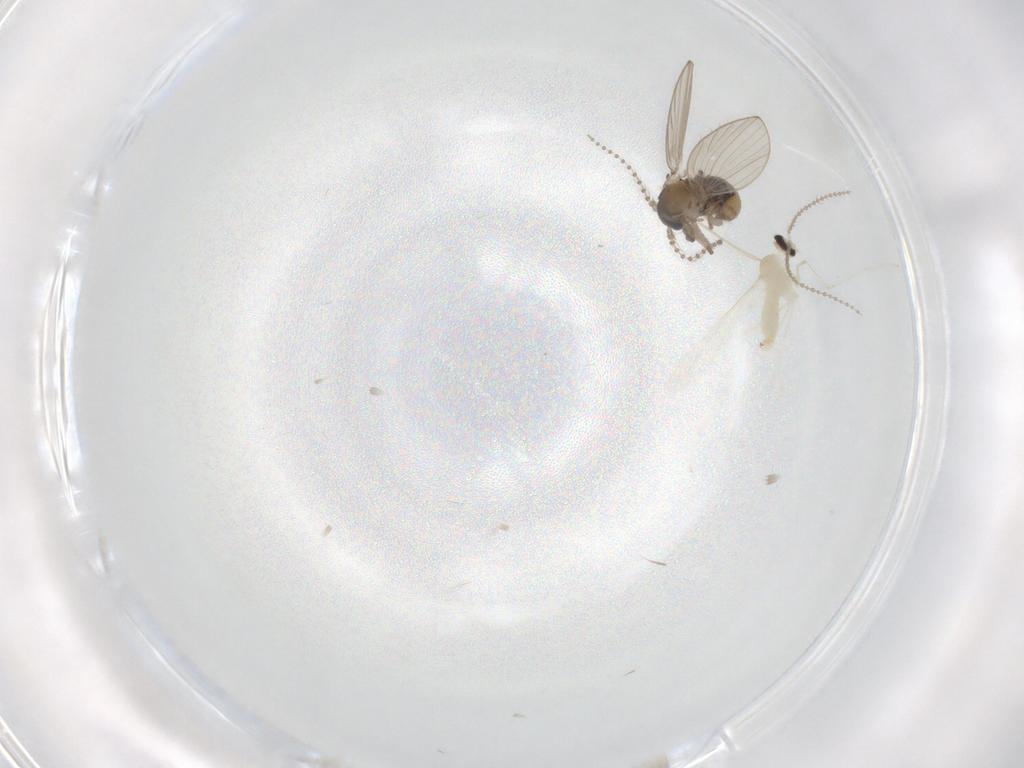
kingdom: Animalia
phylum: Arthropoda
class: Insecta
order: Diptera
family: Psychodidae
